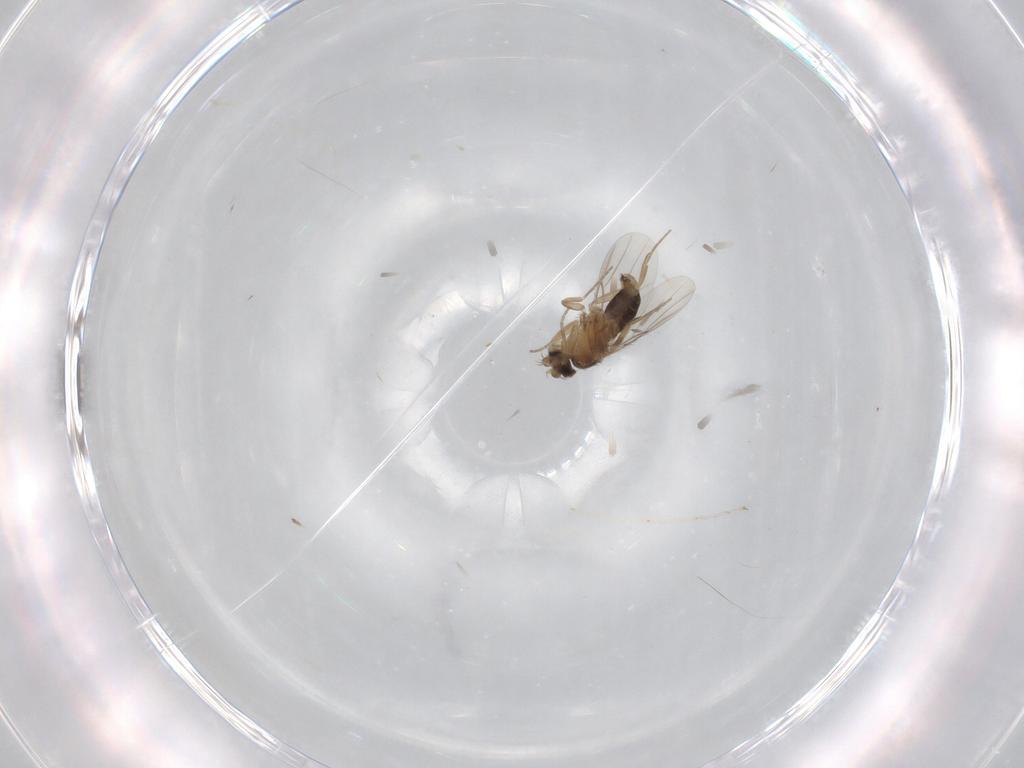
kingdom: Animalia
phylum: Arthropoda
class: Insecta
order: Diptera
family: Phoridae
